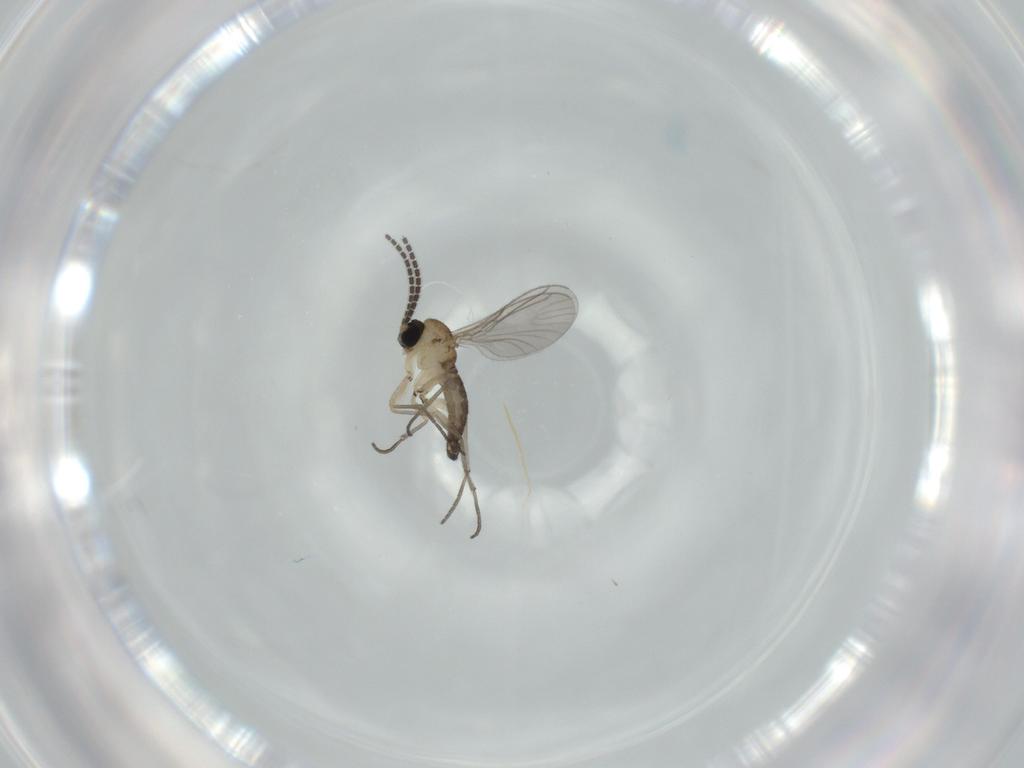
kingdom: Animalia
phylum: Arthropoda
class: Insecta
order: Diptera
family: Sciaridae
